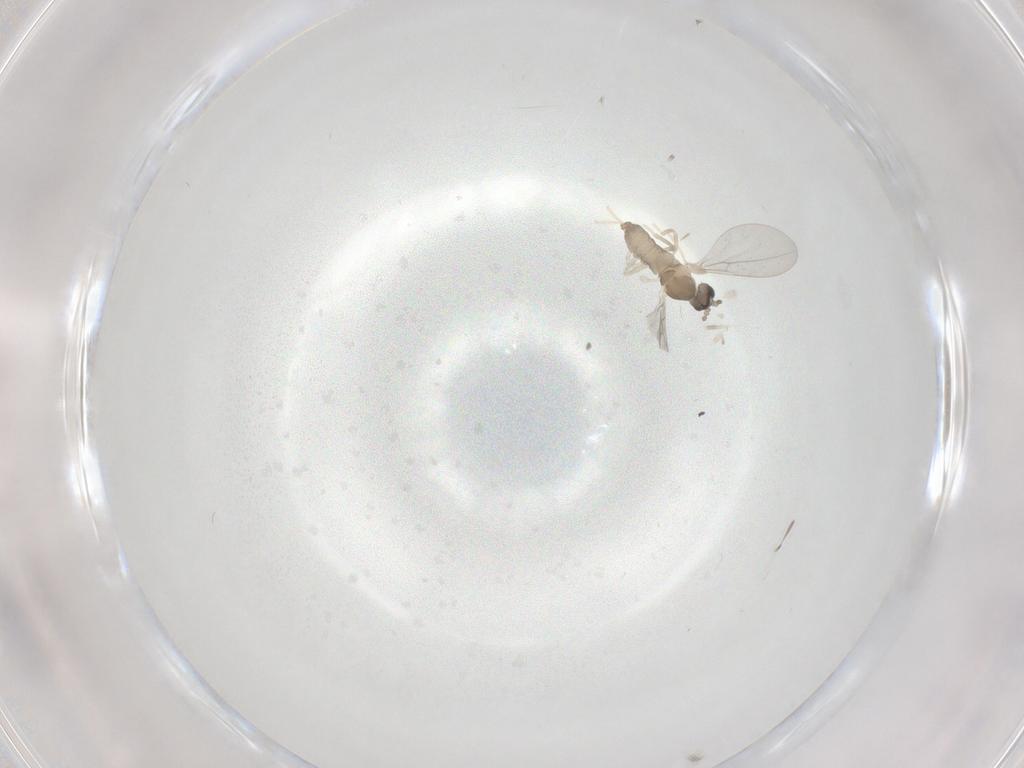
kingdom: Animalia
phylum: Arthropoda
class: Insecta
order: Diptera
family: Cecidomyiidae
